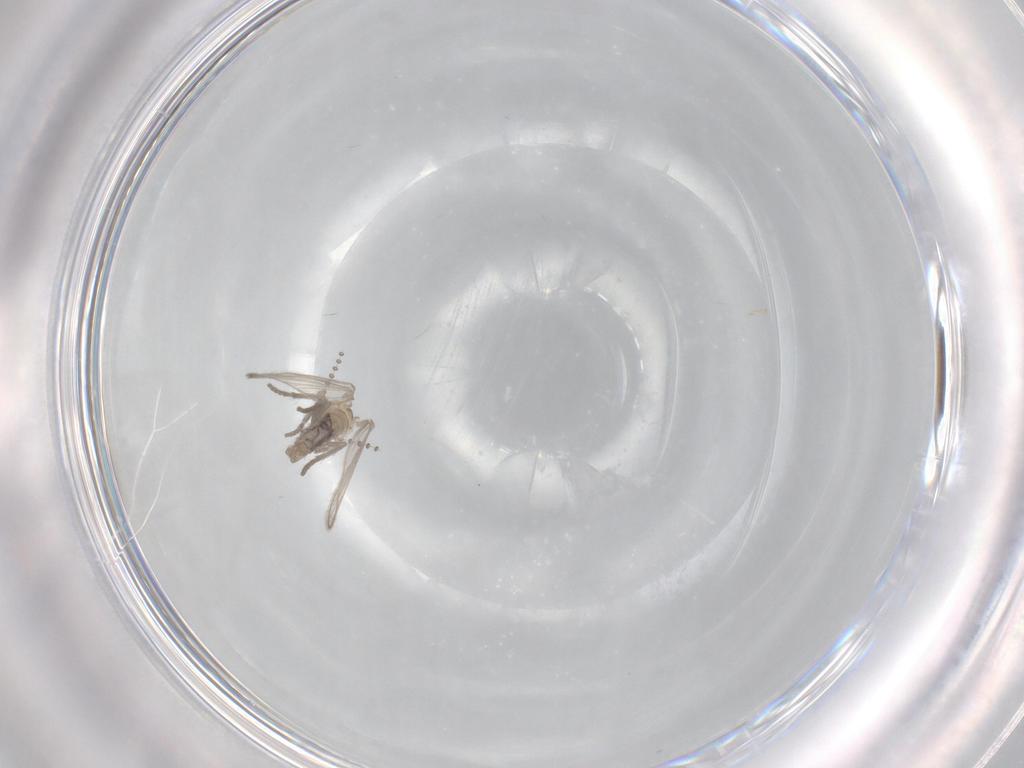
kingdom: Animalia
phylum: Arthropoda
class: Insecta
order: Diptera
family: Psychodidae
